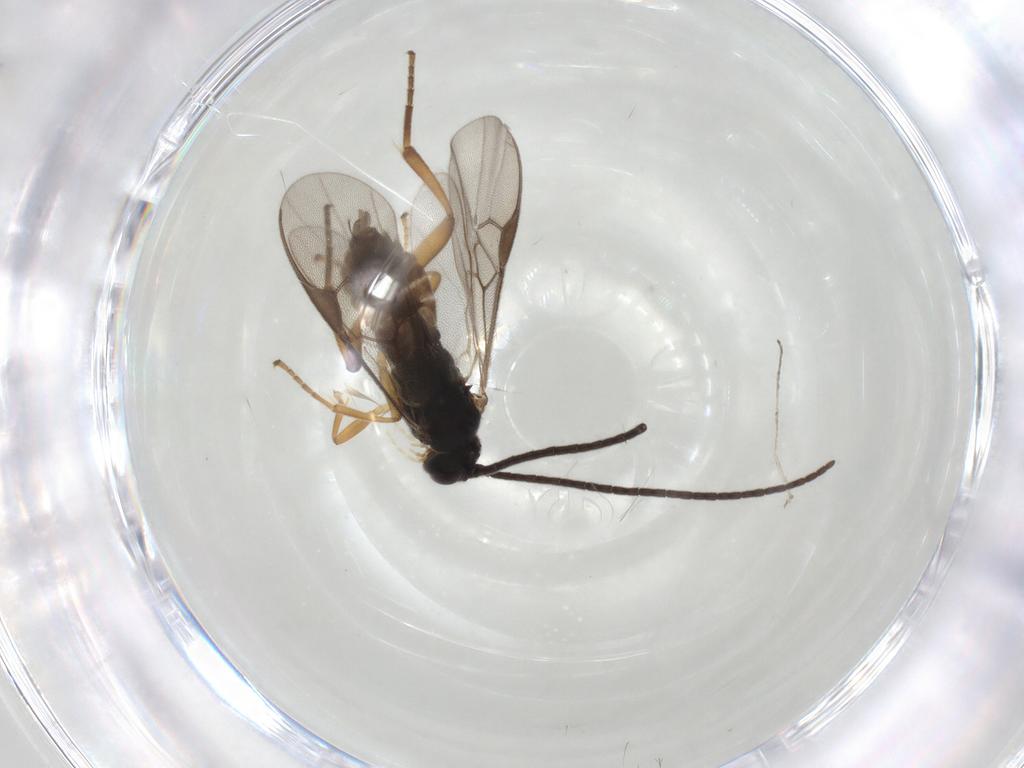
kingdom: Animalia
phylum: Arthropoda
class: Insecta
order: Hymenoptera
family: Braconidae
